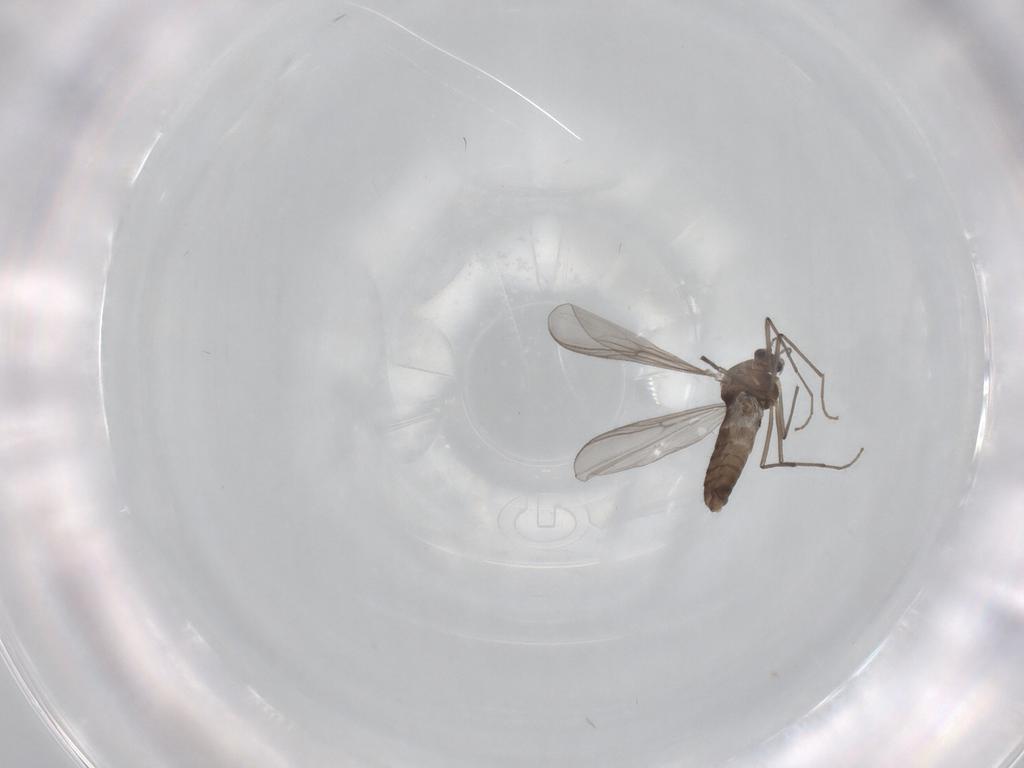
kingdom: Animalia
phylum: Arthropoda
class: Insecta
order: Diptera
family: Chironomidae
